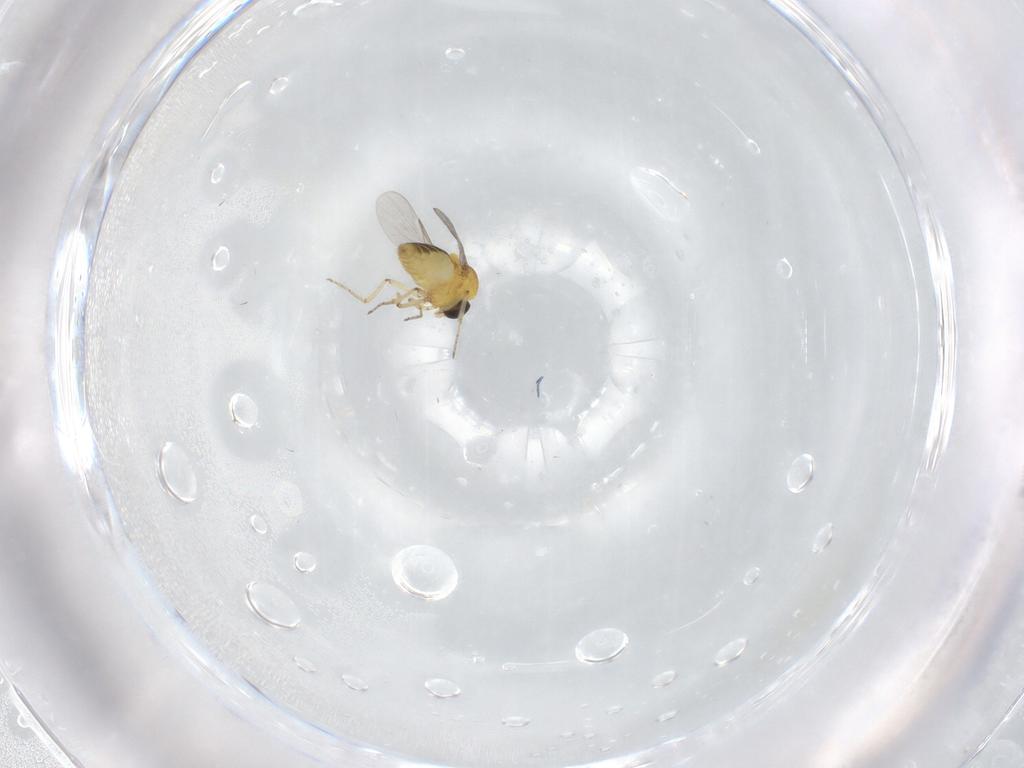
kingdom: Animalia
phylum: Arthropoda
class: Insecta
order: Diptera
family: Ceratopogonidae
